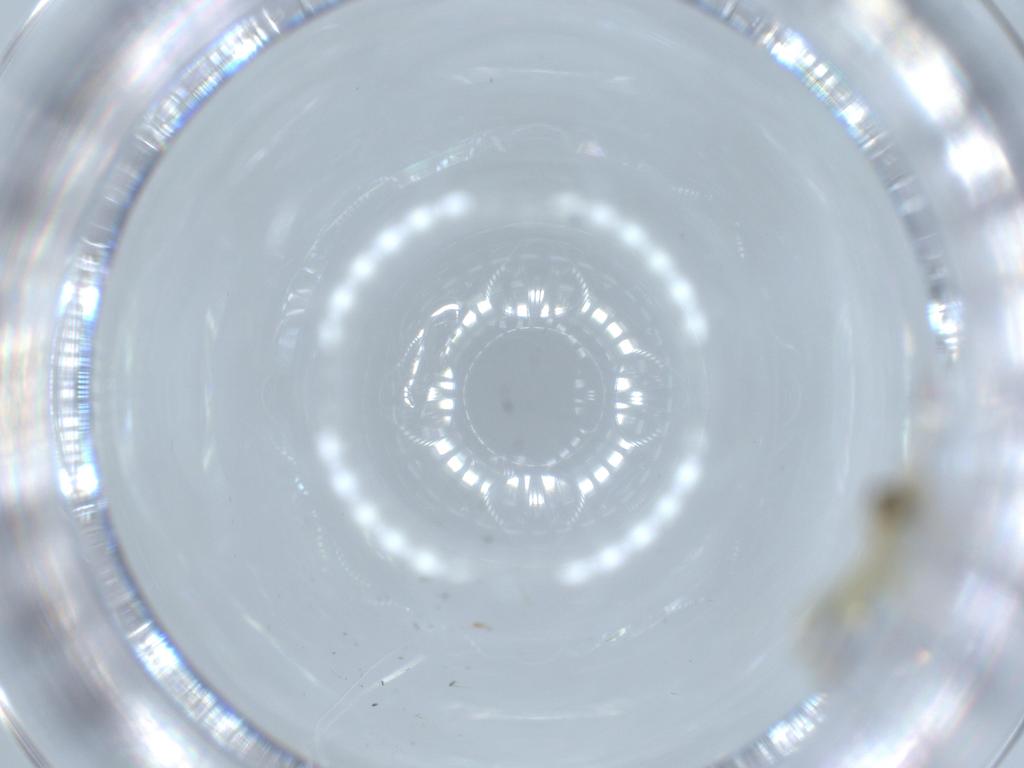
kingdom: Animalia
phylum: Arthropoda
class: Insecta
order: Diptera
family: Chironomidae
